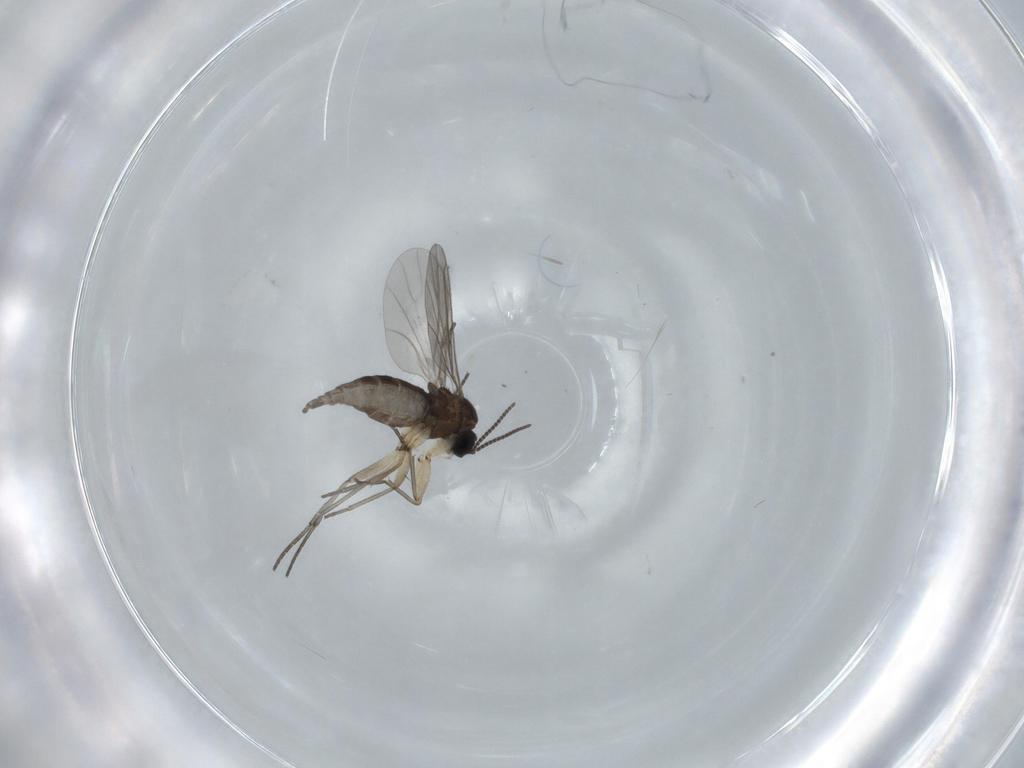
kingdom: Animalia
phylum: Arthropoda
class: Insecta
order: Diptera
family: Sciaridae
